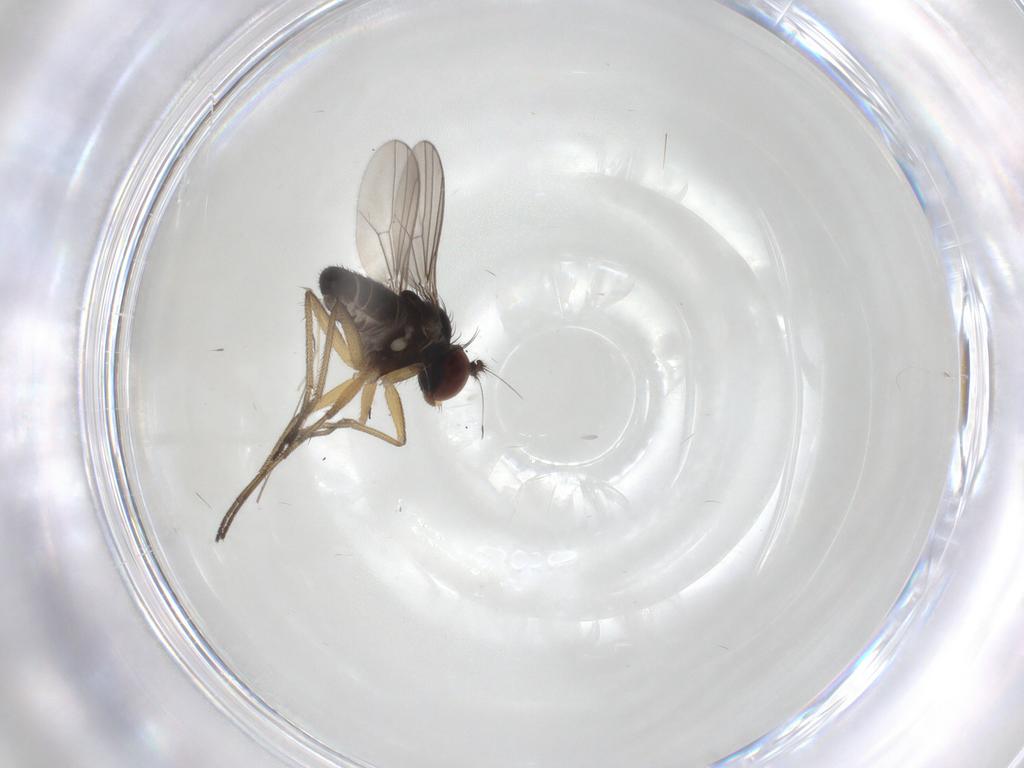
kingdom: Animalia
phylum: Arthropoda
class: Insecta
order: Diptera
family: Dolichopodidae
